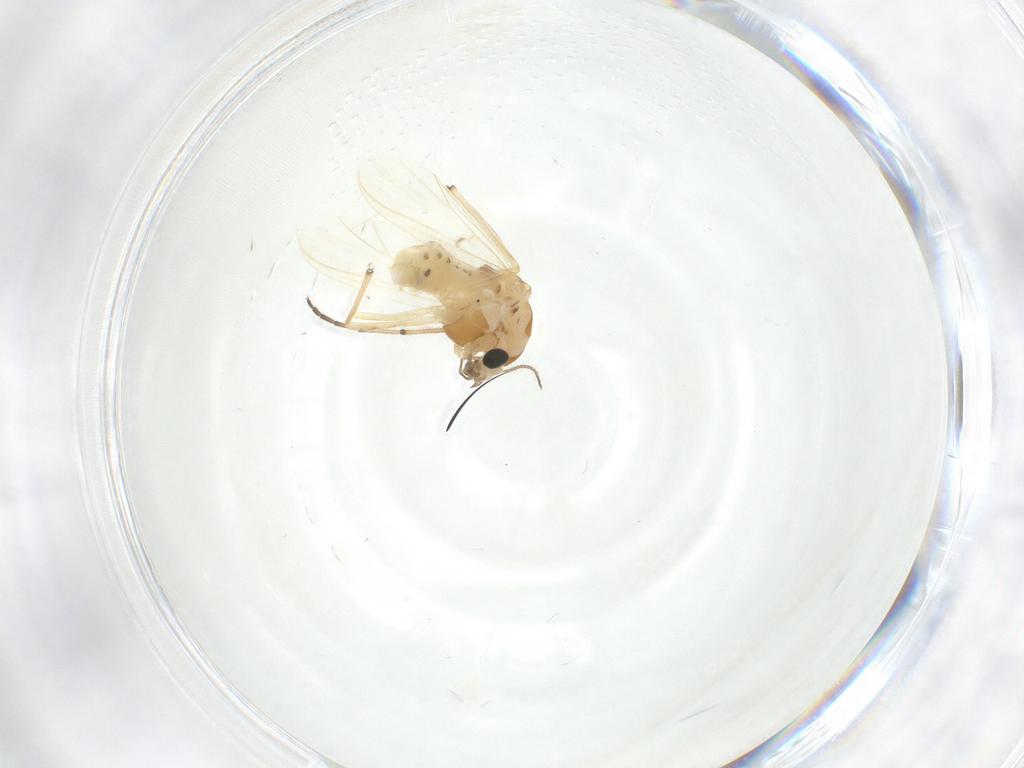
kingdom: Animalia
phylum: Arthropoda
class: Insecta
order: Diptera
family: Chironomidae
